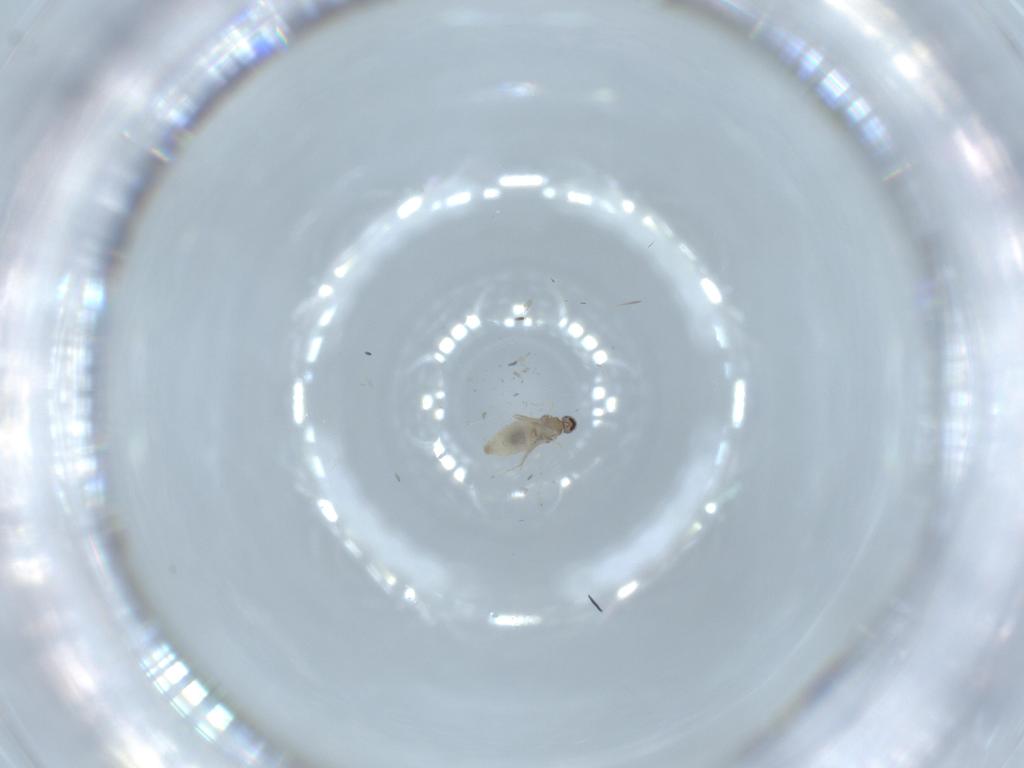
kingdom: Animalia
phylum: Arthropoda
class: Insecta
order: Diptera
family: Cecidomyiidae
